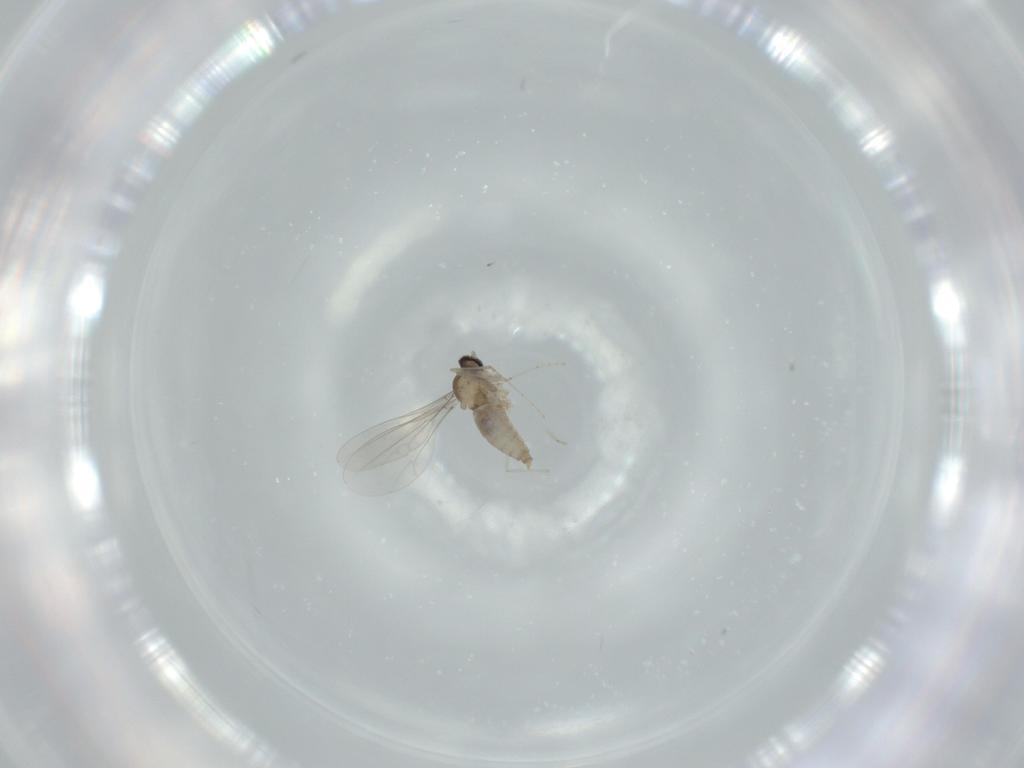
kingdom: Animalia
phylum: Arthropoda
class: Insecta
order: Diptera
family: Cecidomyiidae
